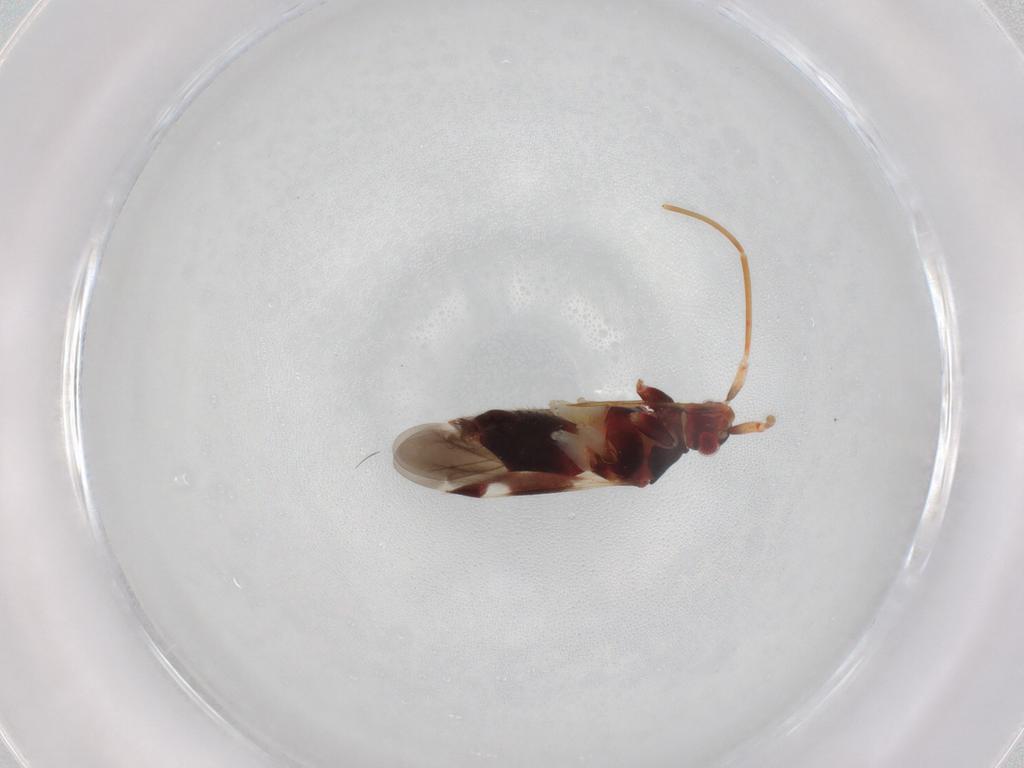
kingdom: Animalia
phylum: Arthropoda
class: Insecta
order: Hemiptera
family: Miridae
